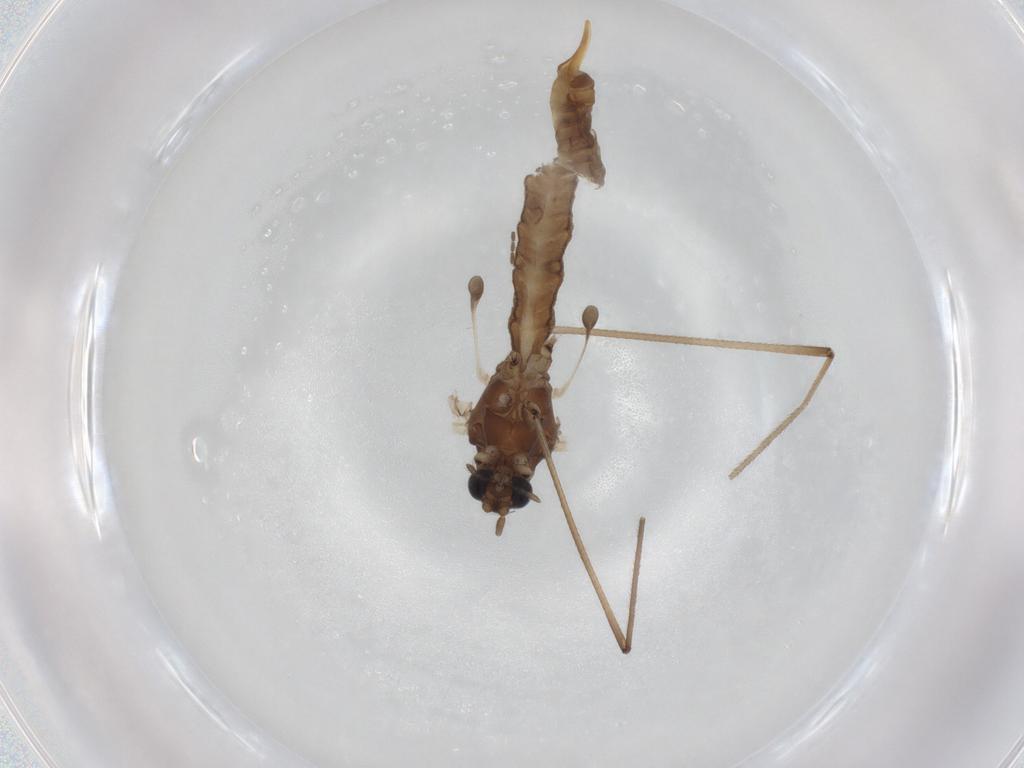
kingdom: Animalia
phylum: Arthropoda
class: Insecta
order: Diptera
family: Trichoceridae
